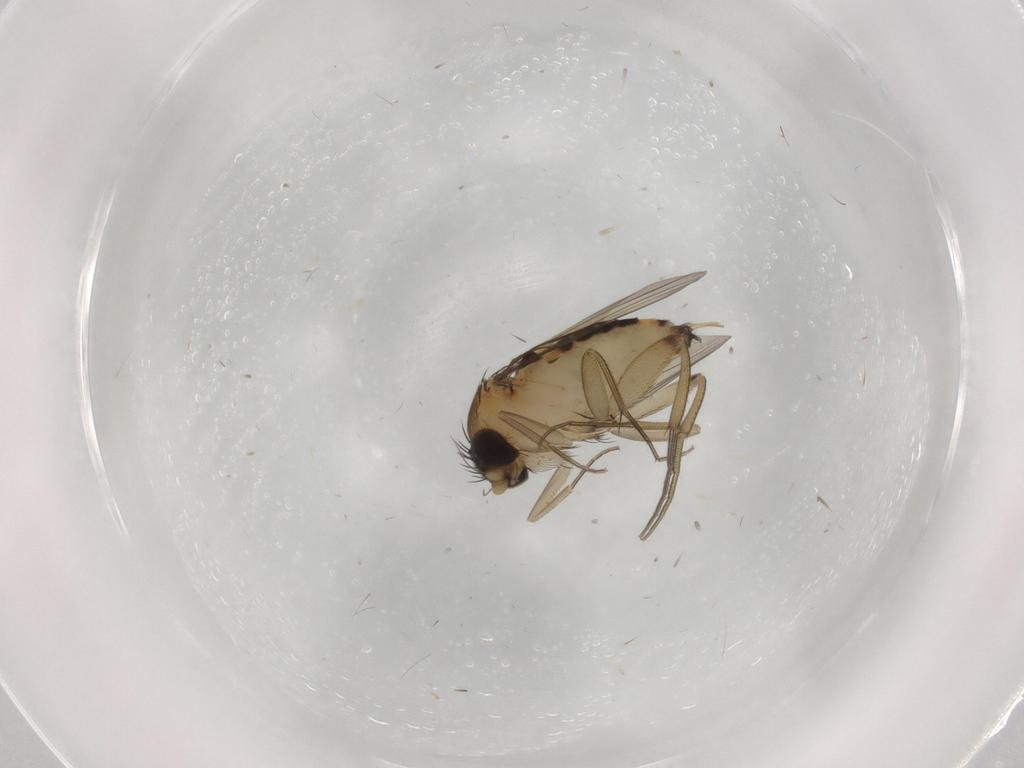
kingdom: Animalia
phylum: Arthropoda
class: Insecta
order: Diptera
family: Phoridae
